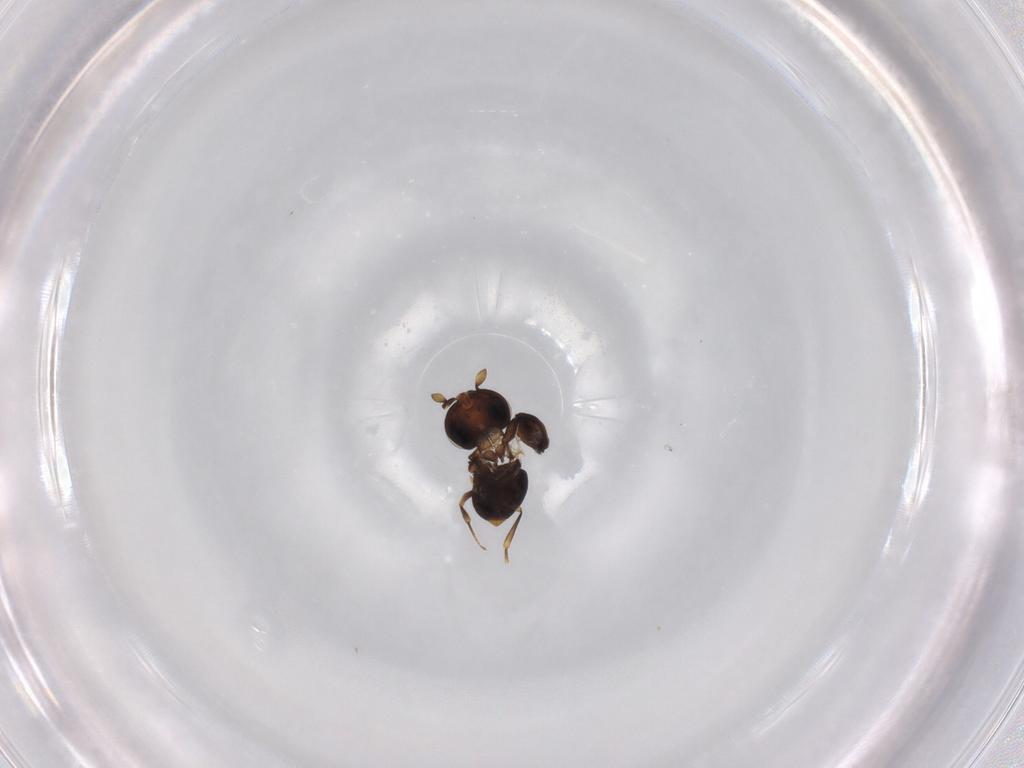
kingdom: Animalia
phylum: Arthropoda
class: Insecta
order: Hymenoptera
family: Scelionidae
